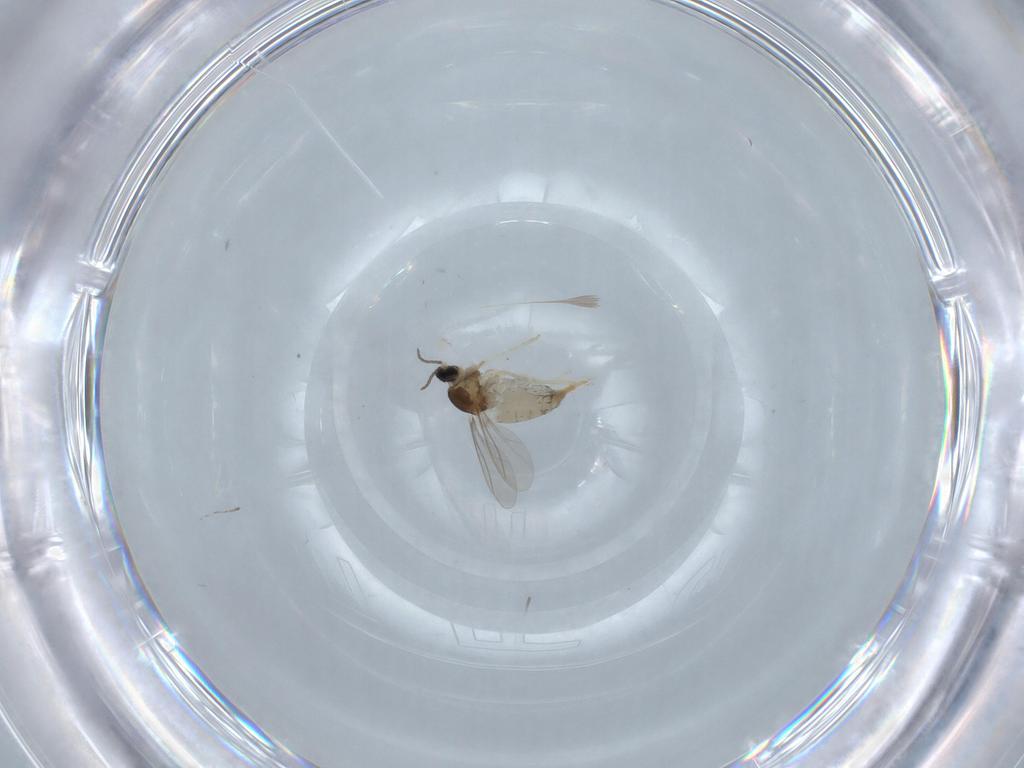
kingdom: Animalia
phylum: Arthropoda
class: Insecta
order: Diptera
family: Cecidomyiidae
